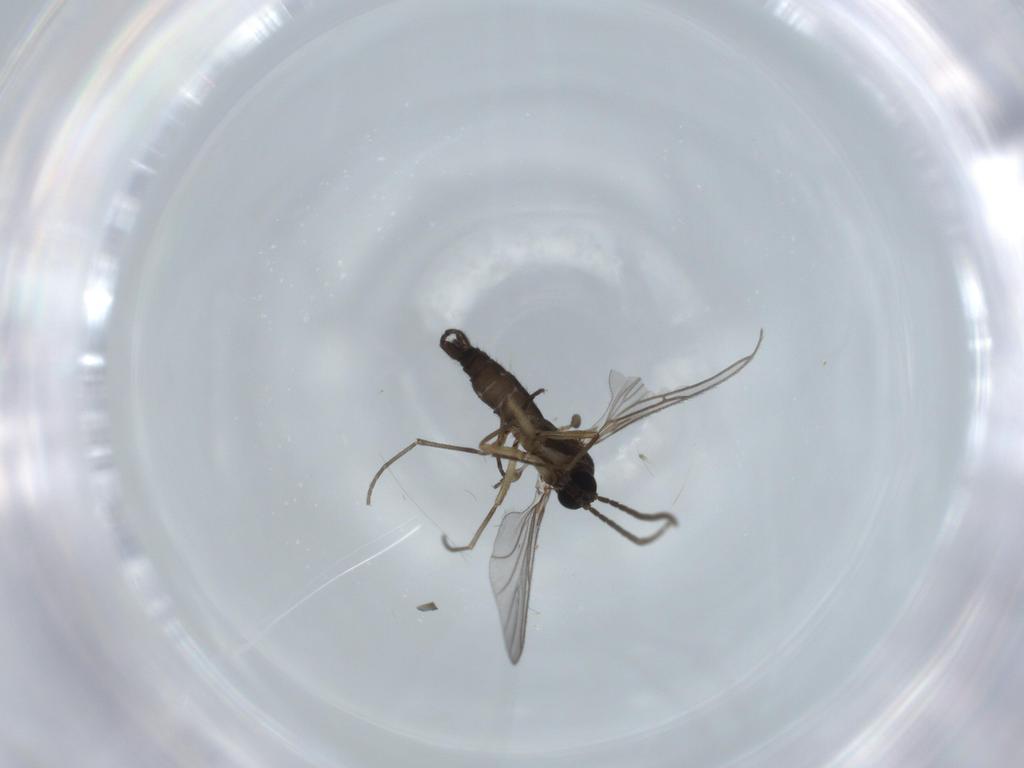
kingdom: Animalia
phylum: Arthropoda
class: Insecta
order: Diptera
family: Sciaridae
